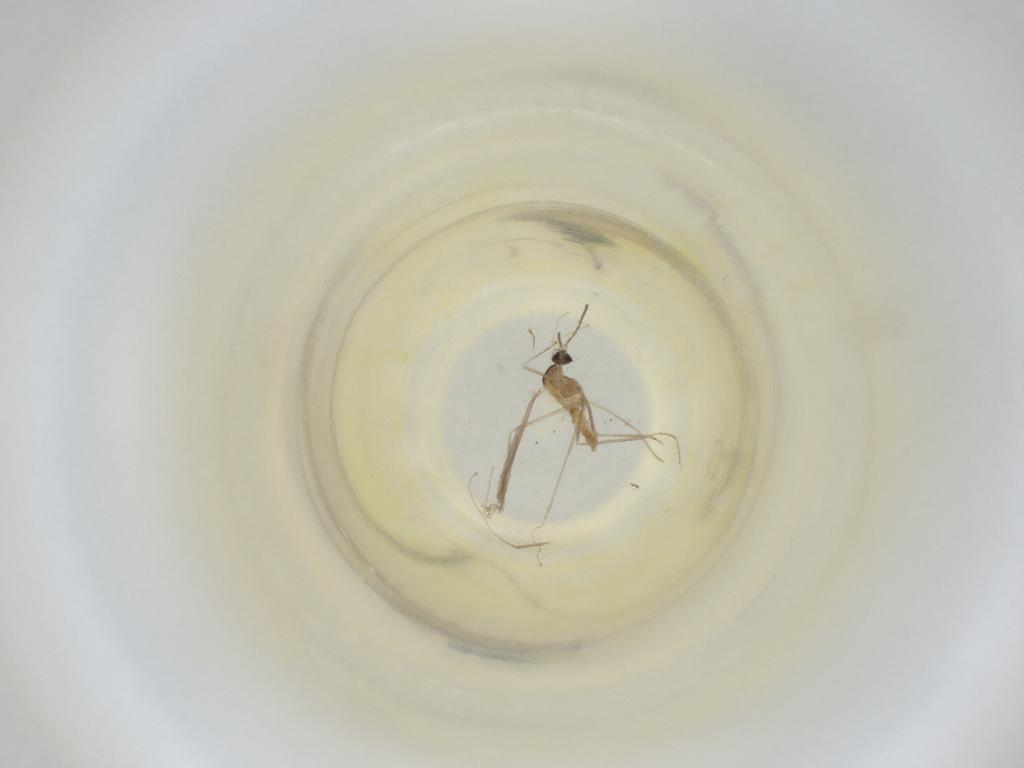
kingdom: Animalia
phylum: Arthropoda
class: Insecta
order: Diptera
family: Cecidomyiidae
